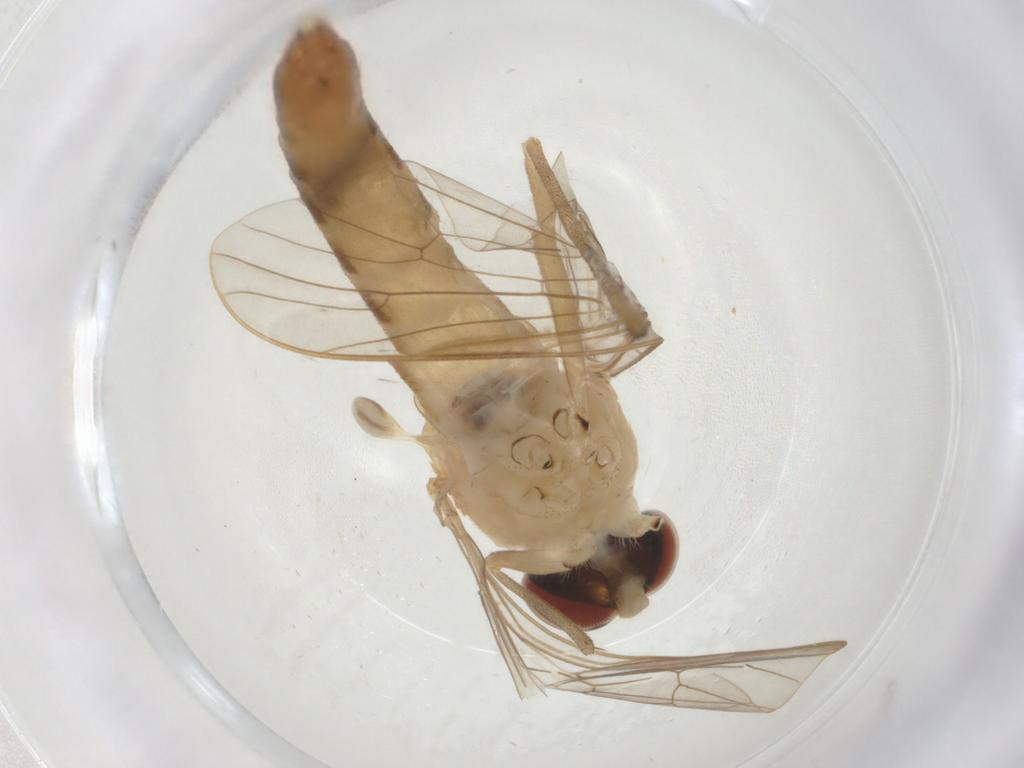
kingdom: Animalia
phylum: Arthropoda
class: Insecta
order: Diptera
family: Apsilocephalidae
